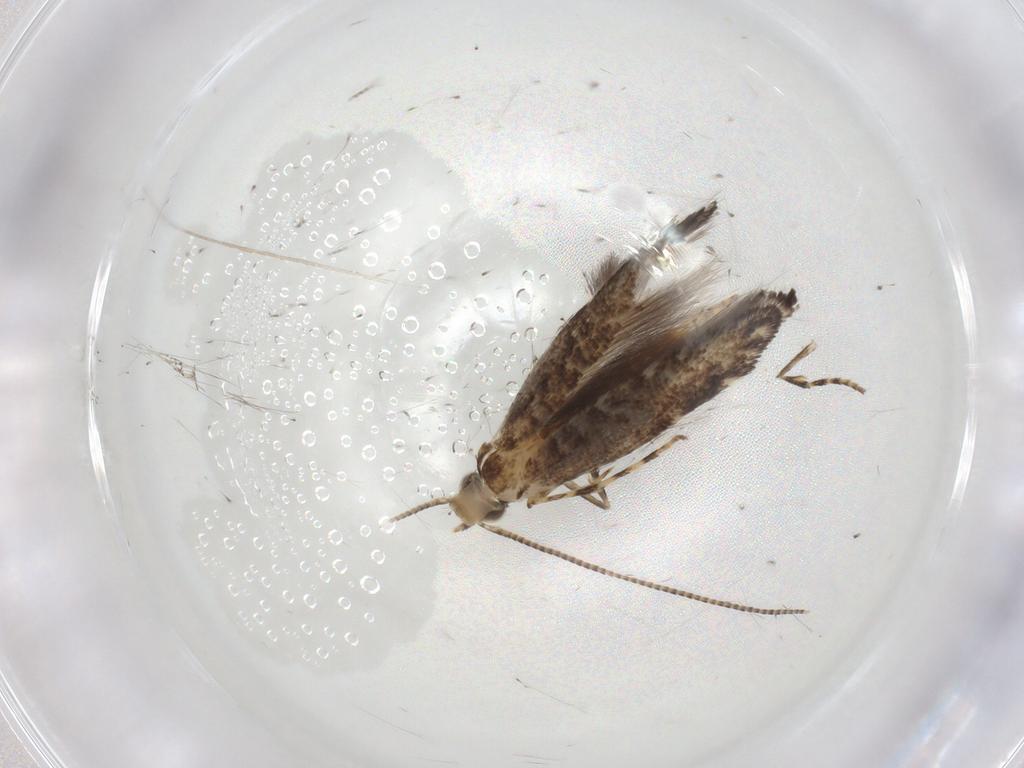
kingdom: Animalia
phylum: Arthropoda
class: Insecta
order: Lepidoptera
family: Gracillariidae
